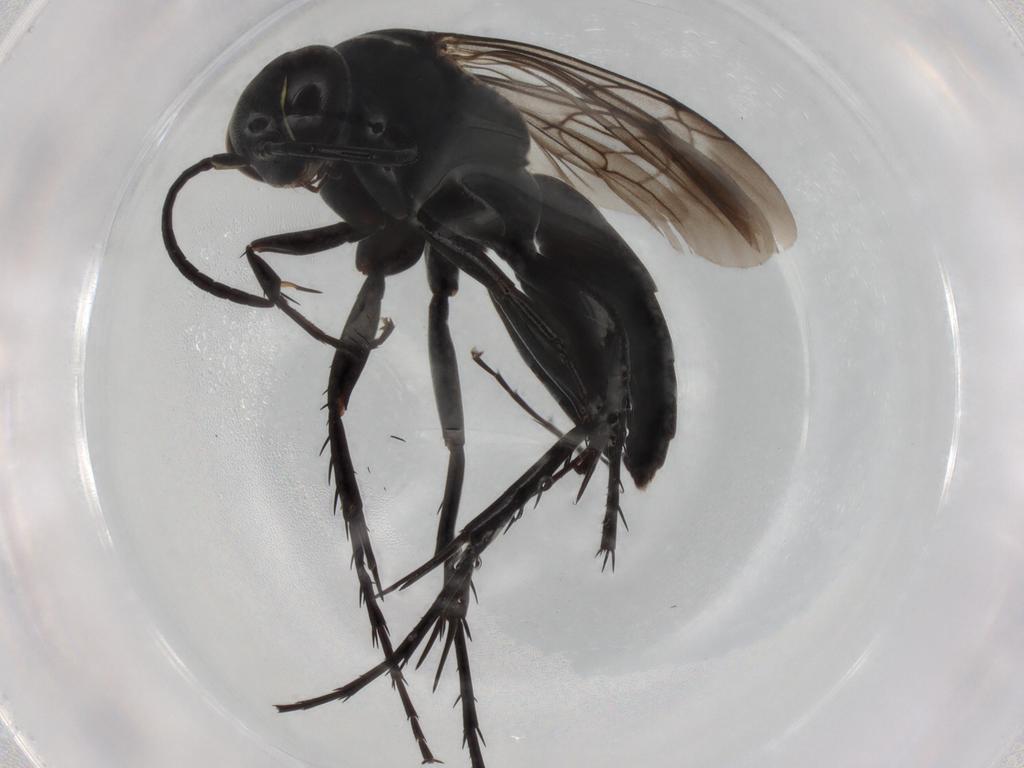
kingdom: Animalia
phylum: Arthropoda
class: Insecta
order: Hymenoptera
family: Pompilidae
